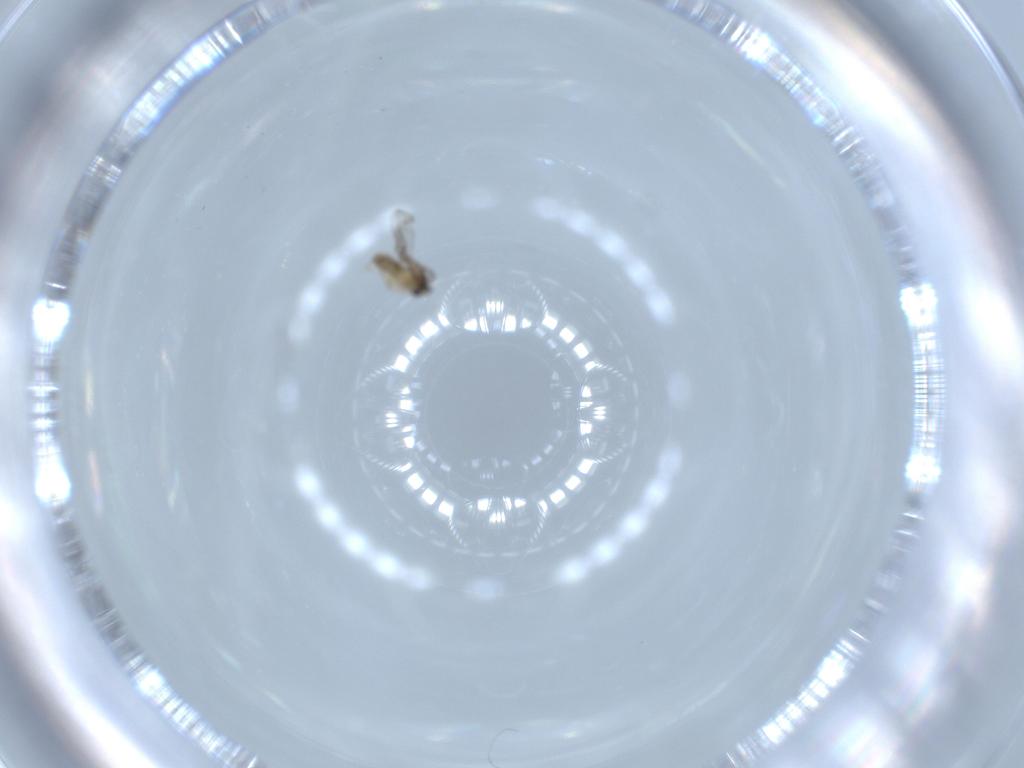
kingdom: Animalia
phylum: Arthropoda
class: Insecta
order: Diptera
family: Cecidomyiidae
